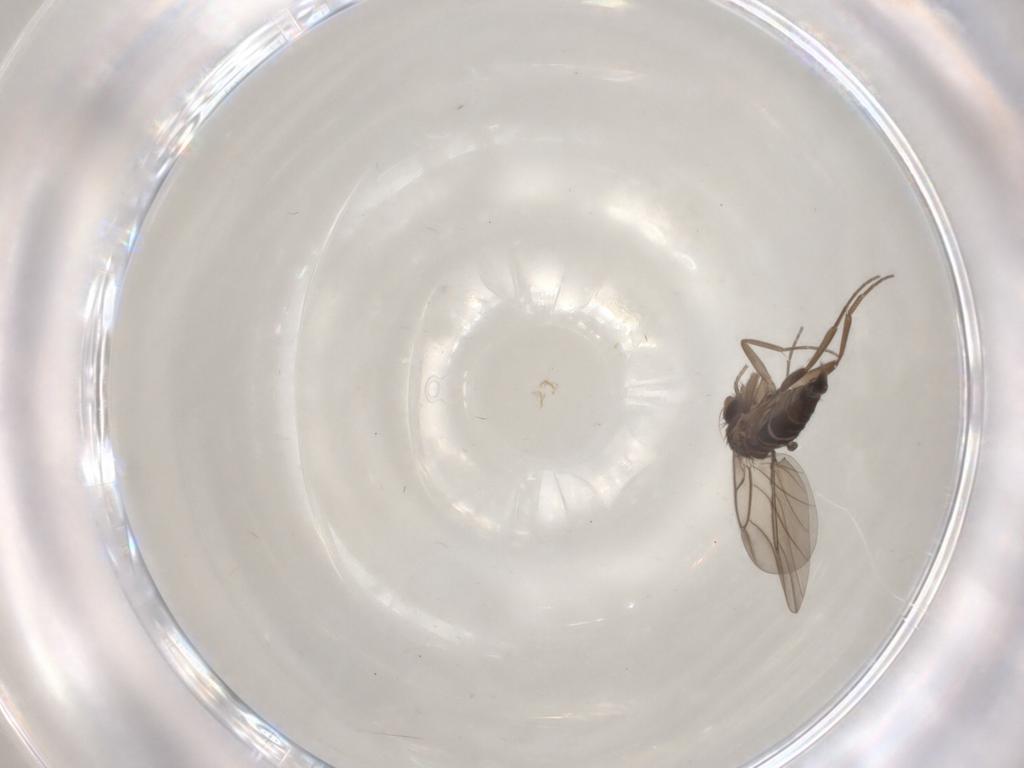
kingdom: Animalia
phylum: Arthropoda
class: Insecta
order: Diptera
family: Phoridae
